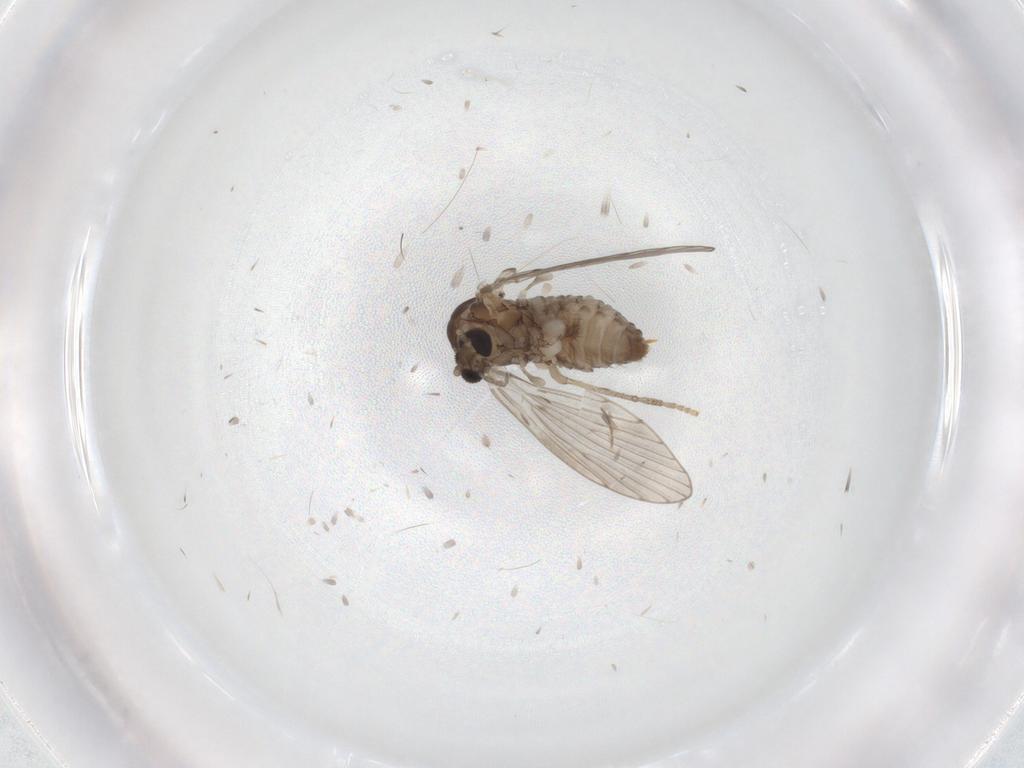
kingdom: Animalia
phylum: Arthropoda
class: Insecta
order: Diptera
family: Psychodidae
